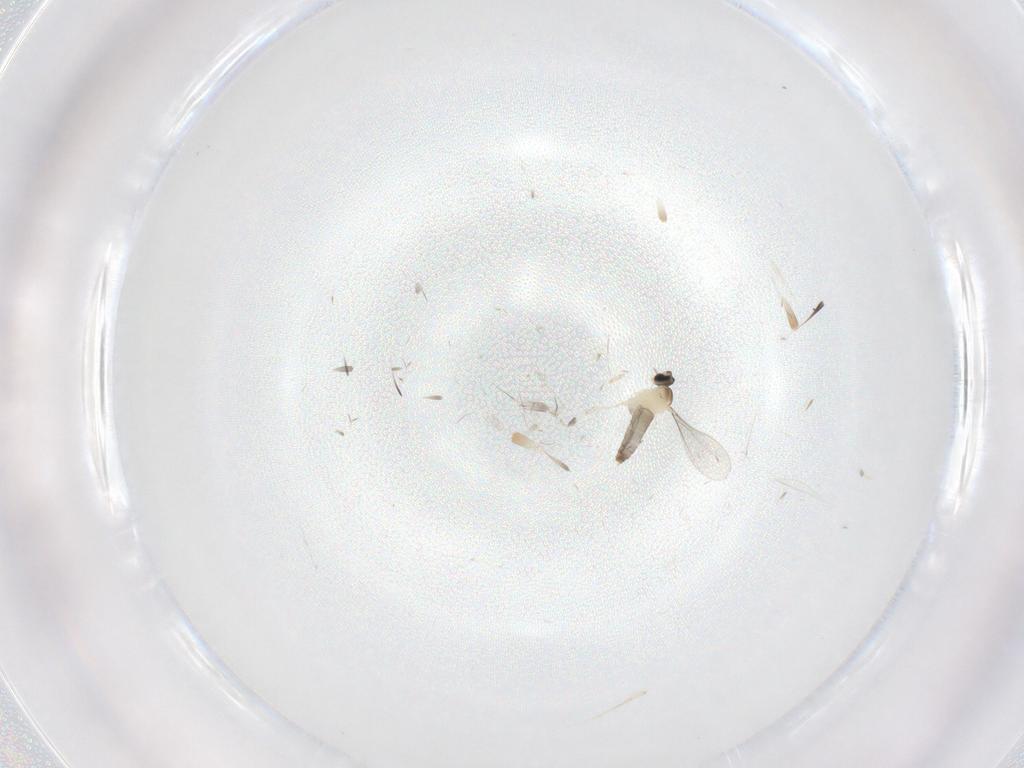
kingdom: Animalia
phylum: Arthropoda
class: Insecta
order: Diptera
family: Cecidomyiidae
